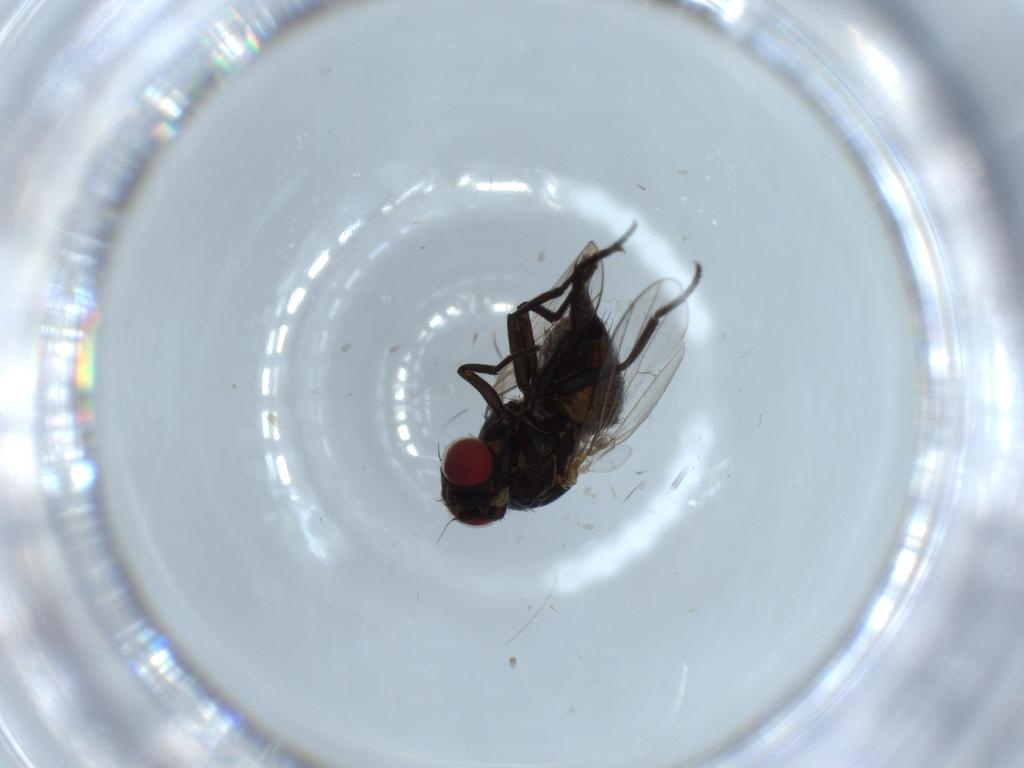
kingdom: Animalia
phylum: Arthropoda
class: Insecta
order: Diptera
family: Agromyzidae
